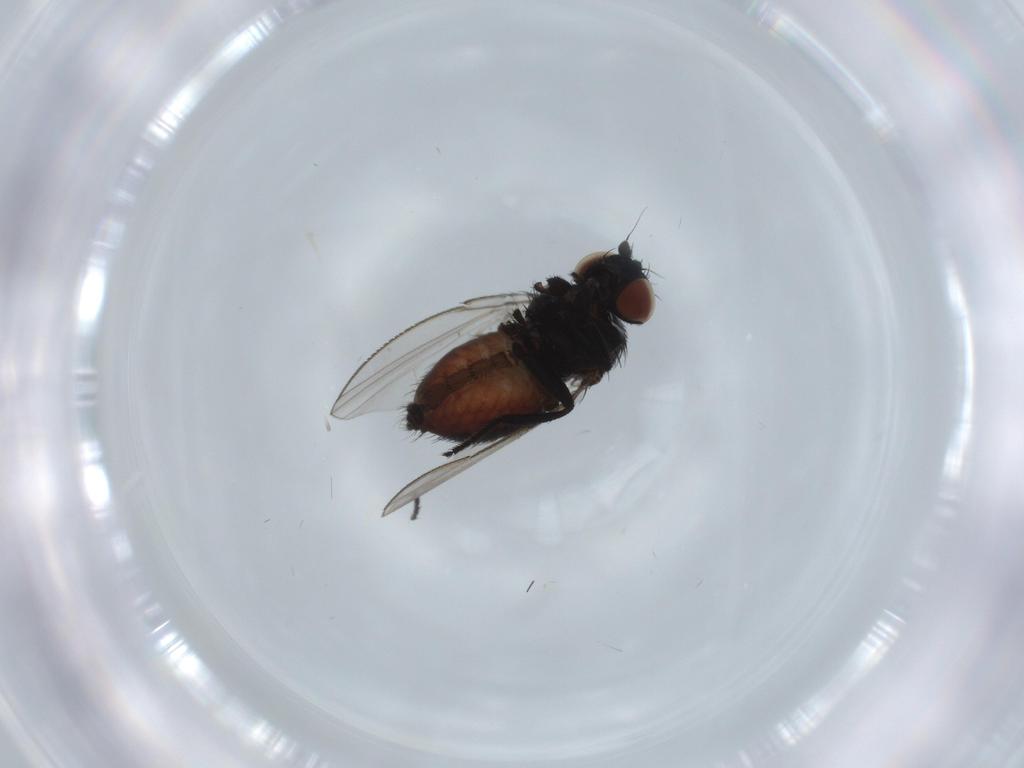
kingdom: Animalia
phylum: Arthropoda
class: Insecta
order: Diptera
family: Milichiidae
